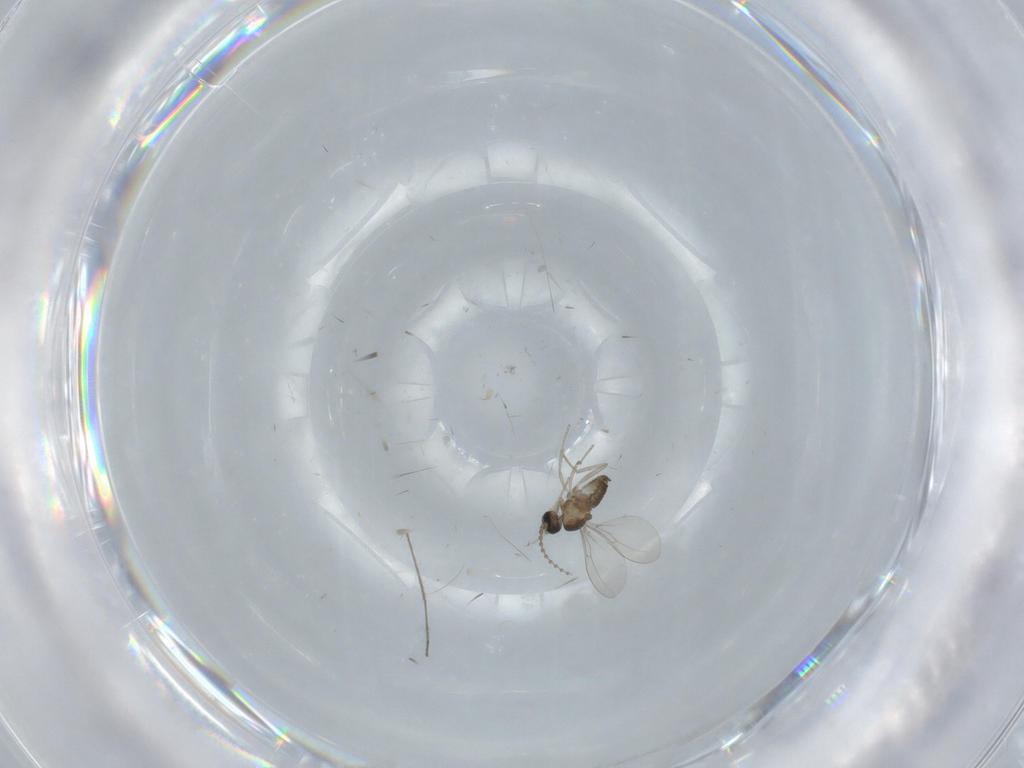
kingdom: Animalia
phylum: Arthropoda
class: Insecta
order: Diptera
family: Cecidomyiidae
